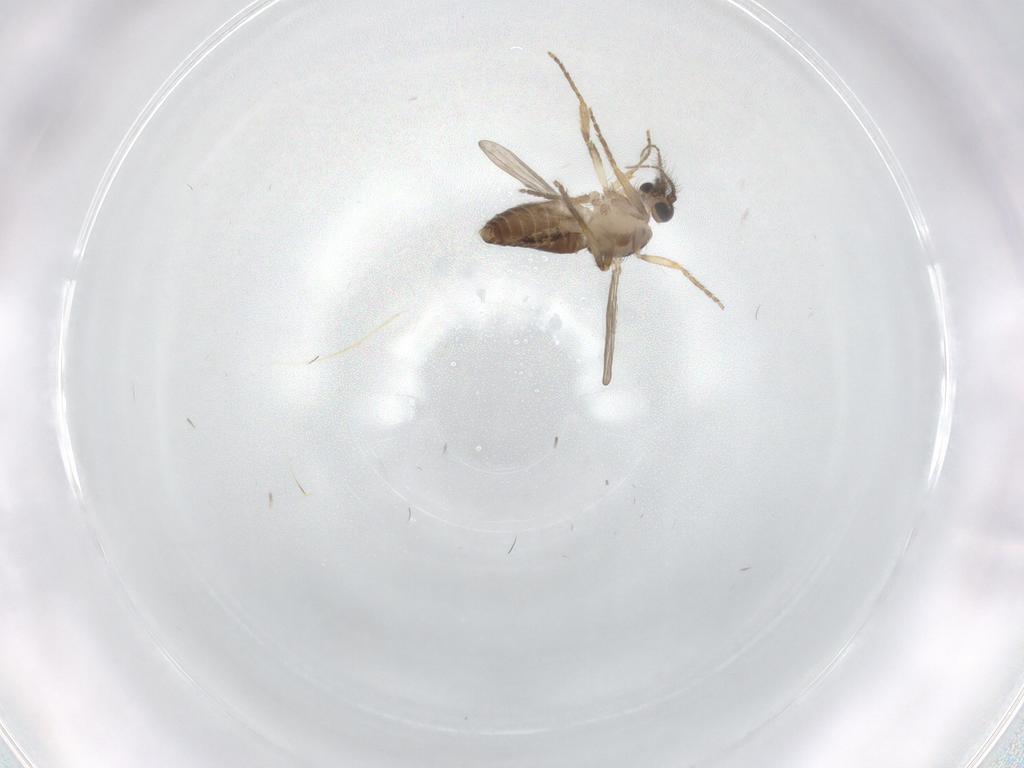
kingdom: Animalia
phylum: Arthropoda
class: Insecta
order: Diptera
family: Ceratopogonidae
